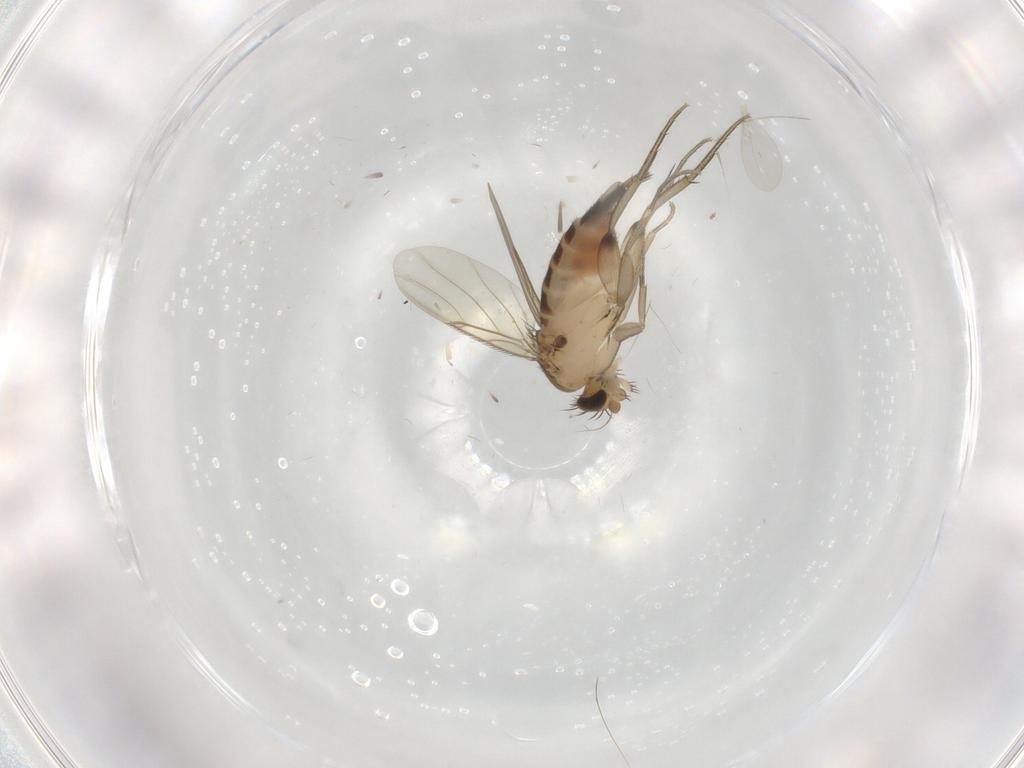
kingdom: Animalia
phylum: Arthropoda
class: Insecta
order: Diptera
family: Cecidomyiidae
